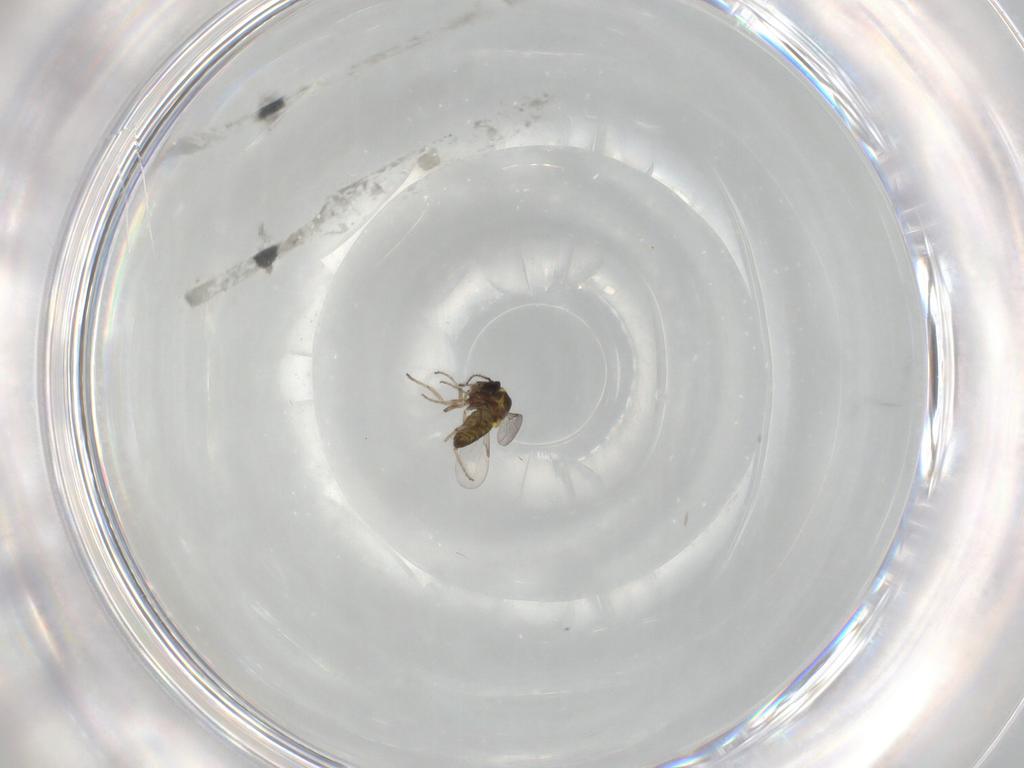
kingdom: Animalia
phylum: Arthropoda
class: Insecta
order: Diptera
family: Ceratopogonidae
